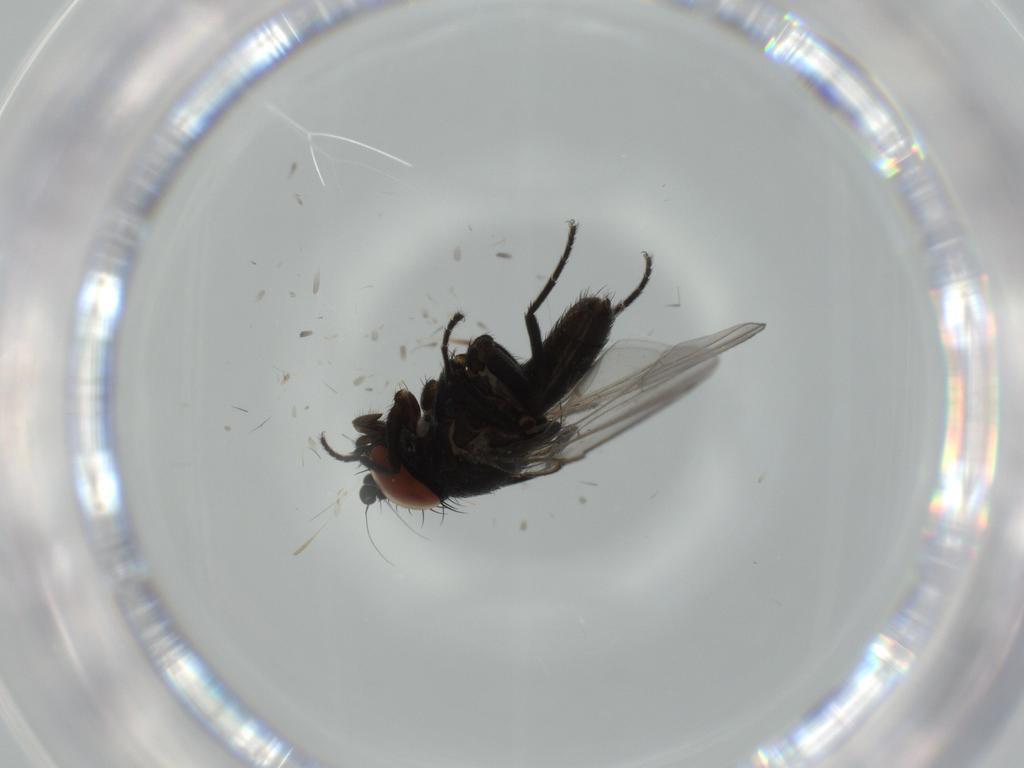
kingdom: Animalia
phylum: Arthropoda
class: Insecta
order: Diptera
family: Milichiidae
